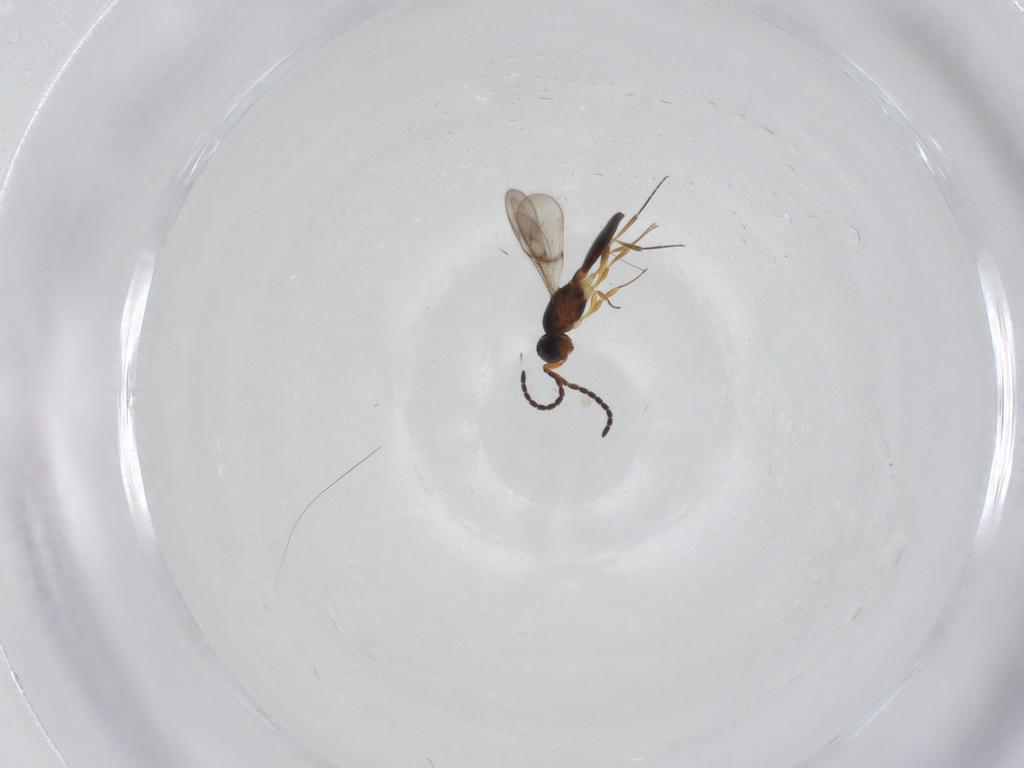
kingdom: Animalia
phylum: Arthropoda
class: Insecta
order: Hymenoptera
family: Scelionidae
